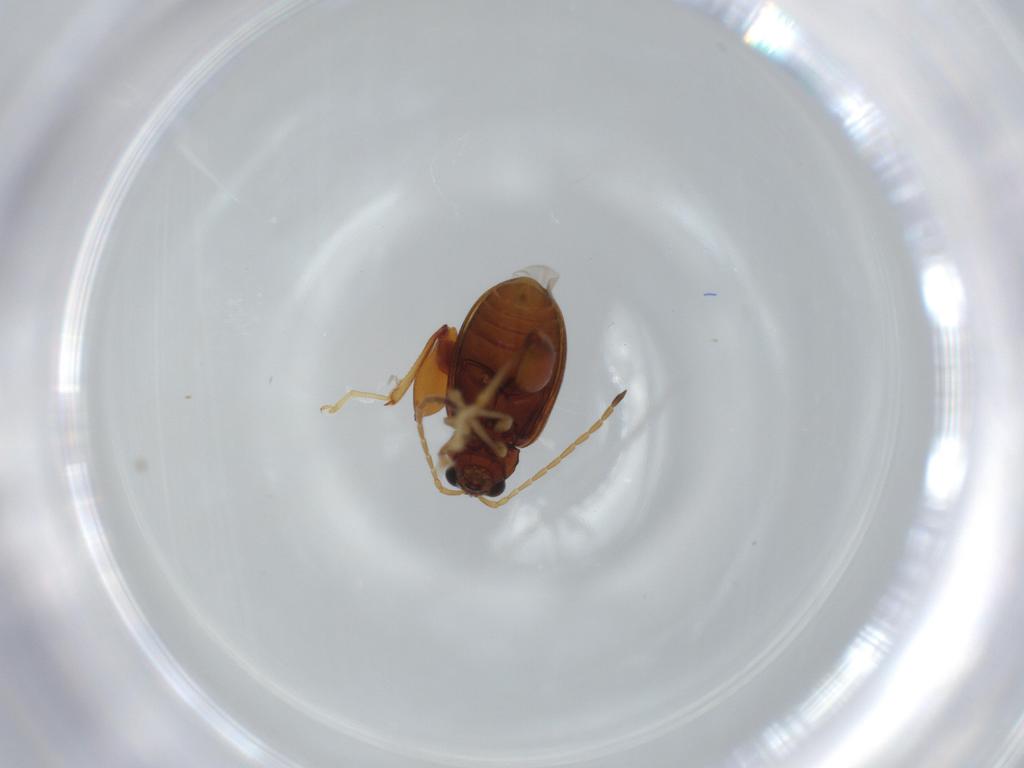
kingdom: Animalia
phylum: Arthropoda
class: Insecta
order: Coleoptera
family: Chrysomelidae
